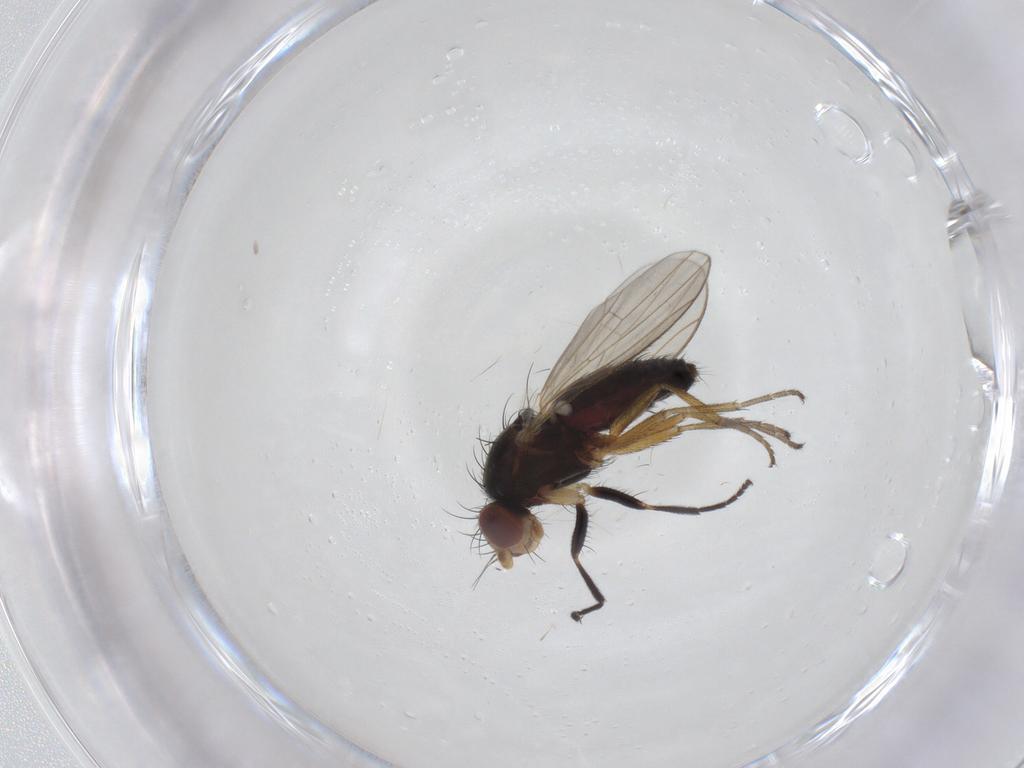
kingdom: Animalia
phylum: Arthropoda
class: Insecta
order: Diptera
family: Heleomyzidae
